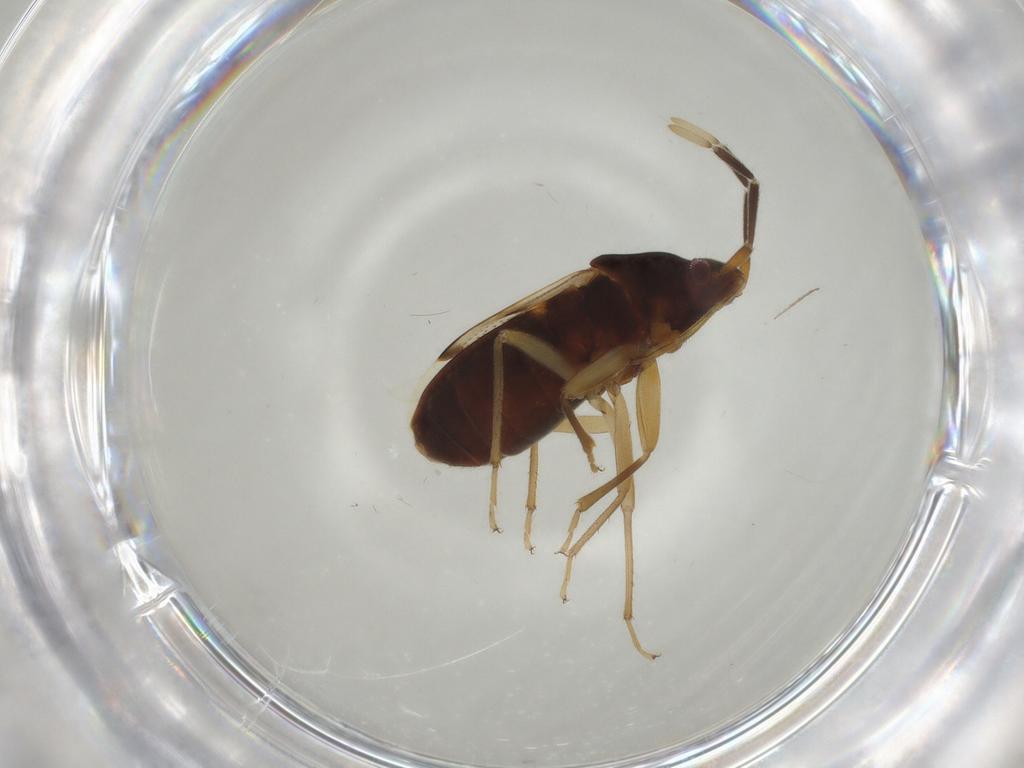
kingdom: Animalia
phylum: Arthropoda
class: Insecta
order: Hemiptera
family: Rhyparochromidae
